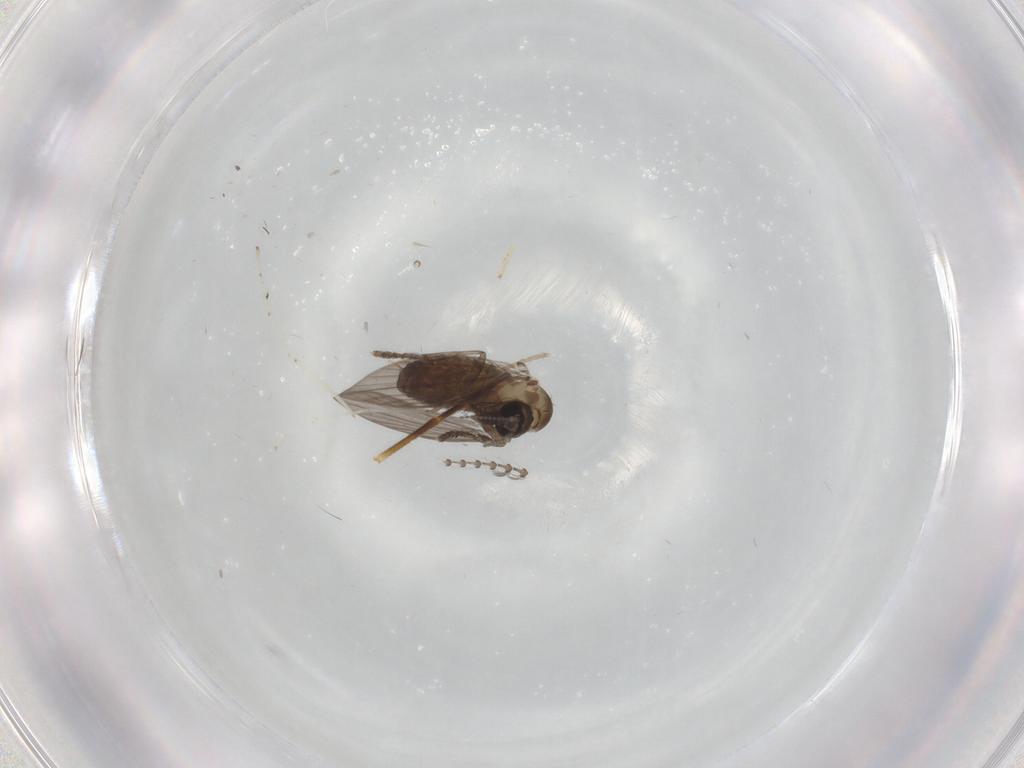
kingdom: Animalia
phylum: Arthropoda
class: Insecta
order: Diptera
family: Psychodidae
